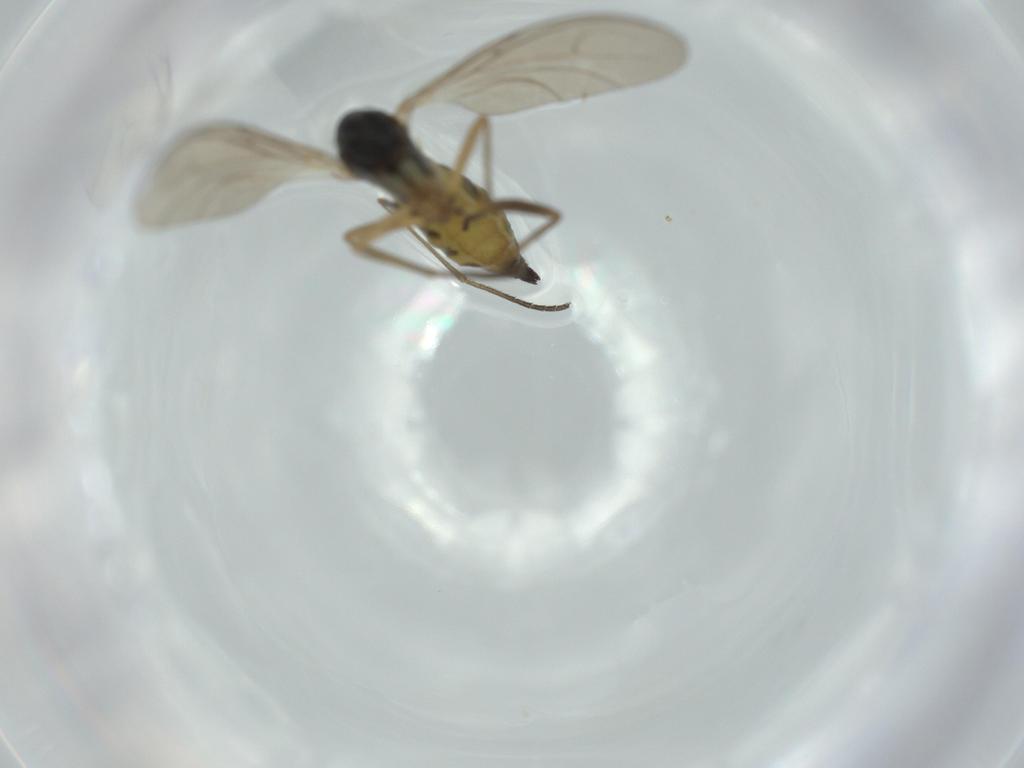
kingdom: Animalia
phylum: Arthropoda
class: Insecta
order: Diptera
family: Sciaridae
